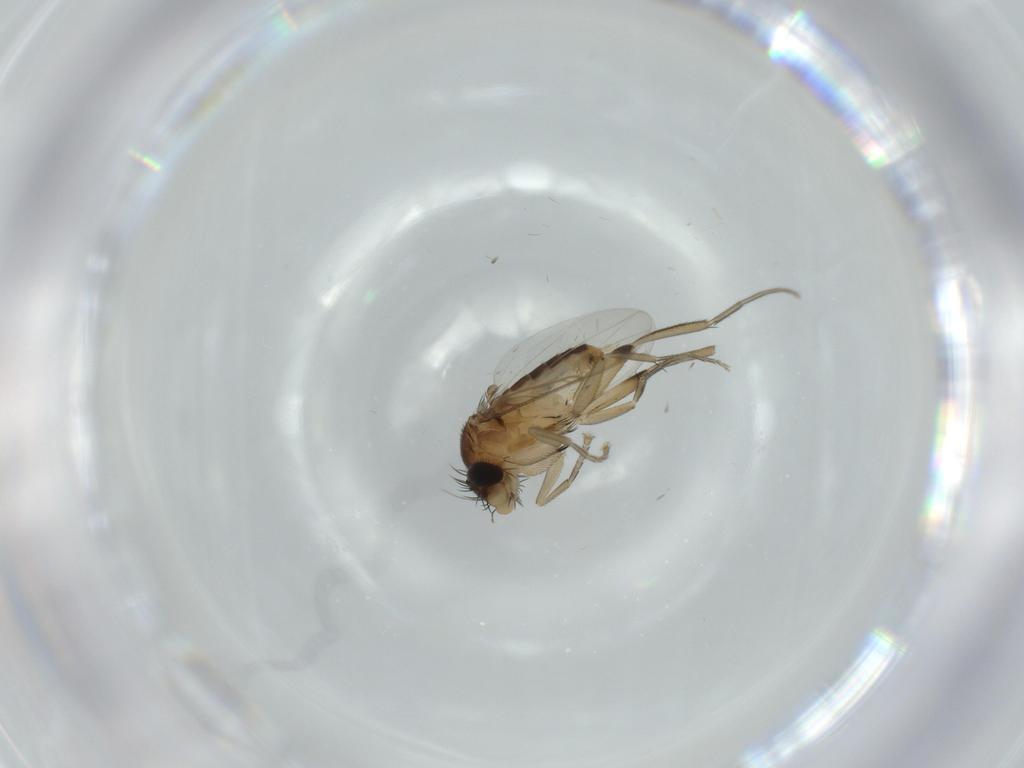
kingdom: Animalia
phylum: Arthropoda
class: Insecta
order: Diptera
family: Phoridae
